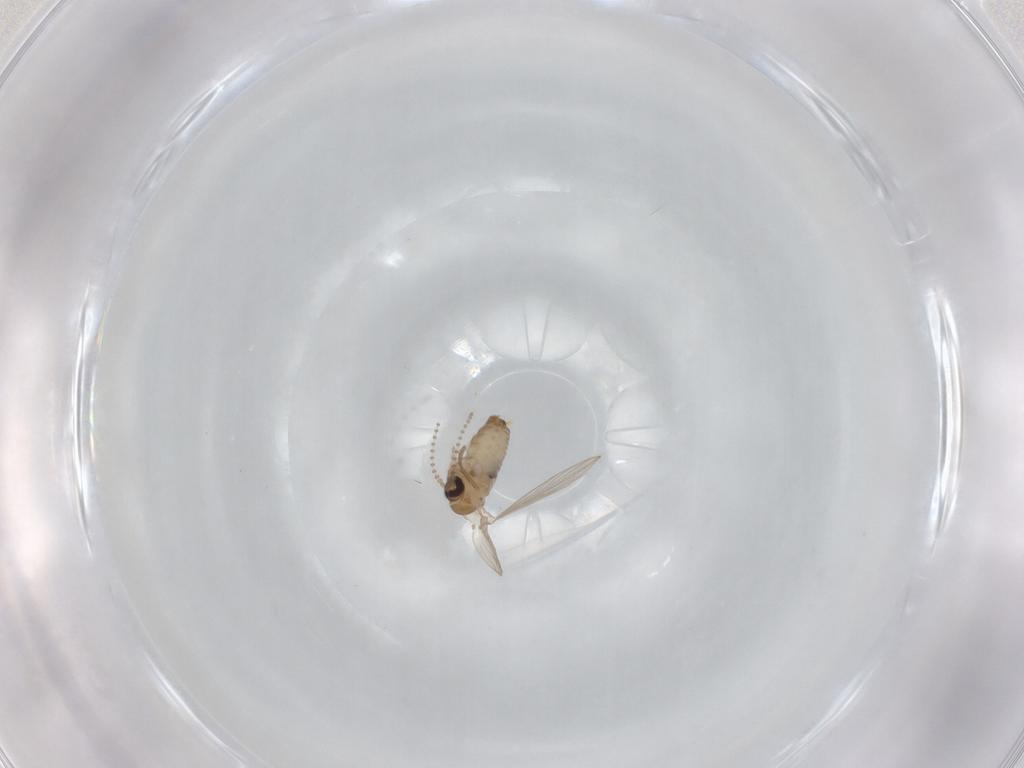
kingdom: Animalia
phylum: Arthropoda
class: Insecta
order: Diptera
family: Psychodidae
